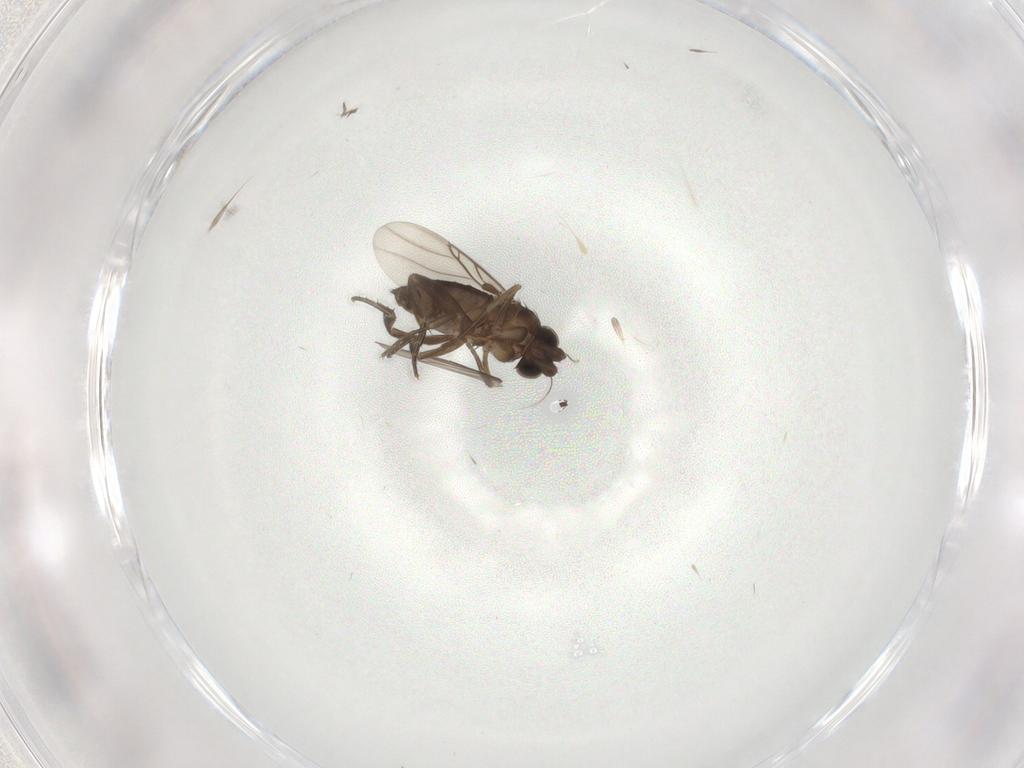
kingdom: Animalia
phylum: Arthropoda
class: Insecta
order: Diptera
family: Phoridae
